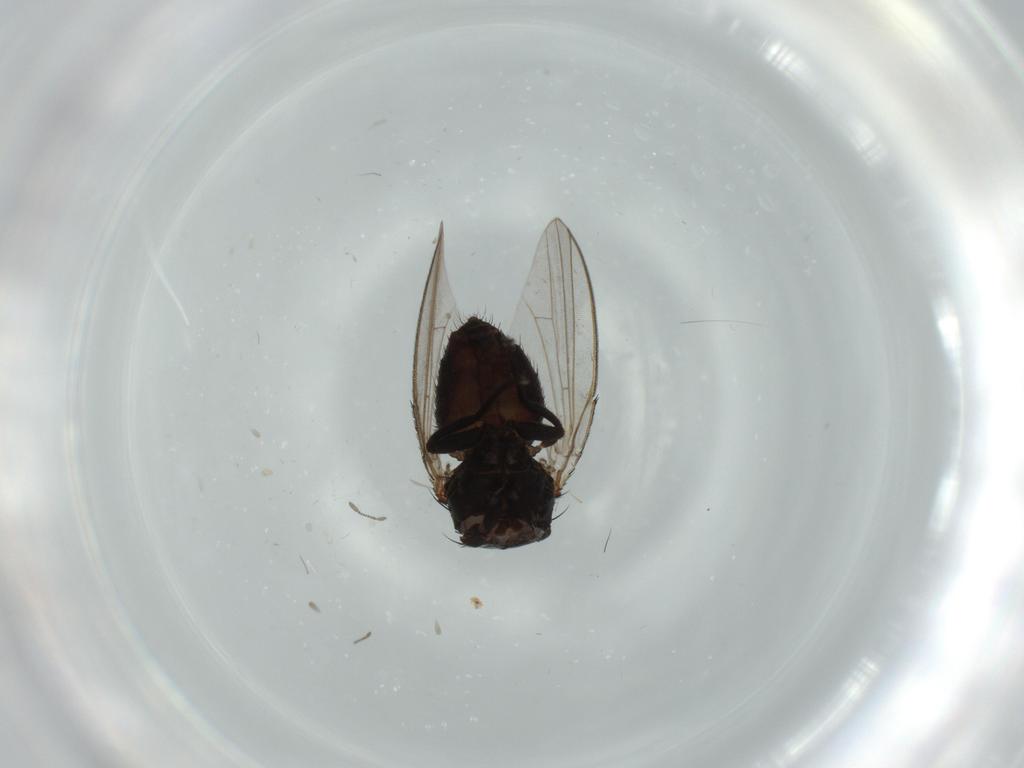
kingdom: Animalia
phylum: Arthropoda
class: Insecta
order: Diptera
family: Milichiidae
